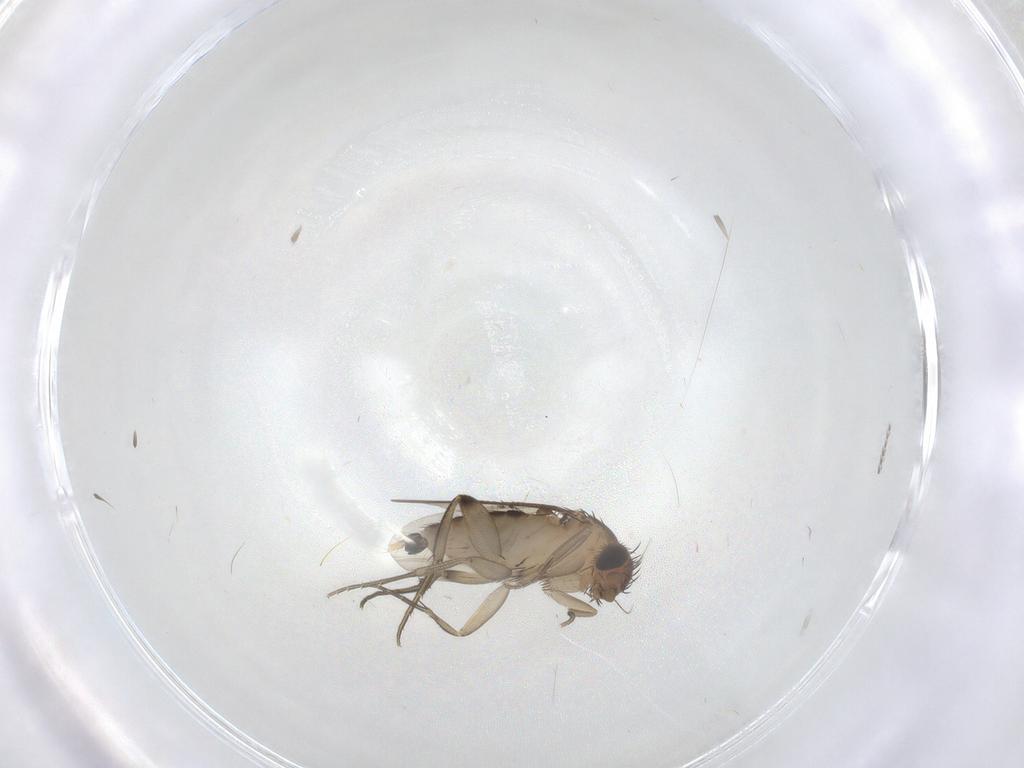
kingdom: Animalia
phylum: Arthropoda
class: Insecta
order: Diptera
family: Phoridae
